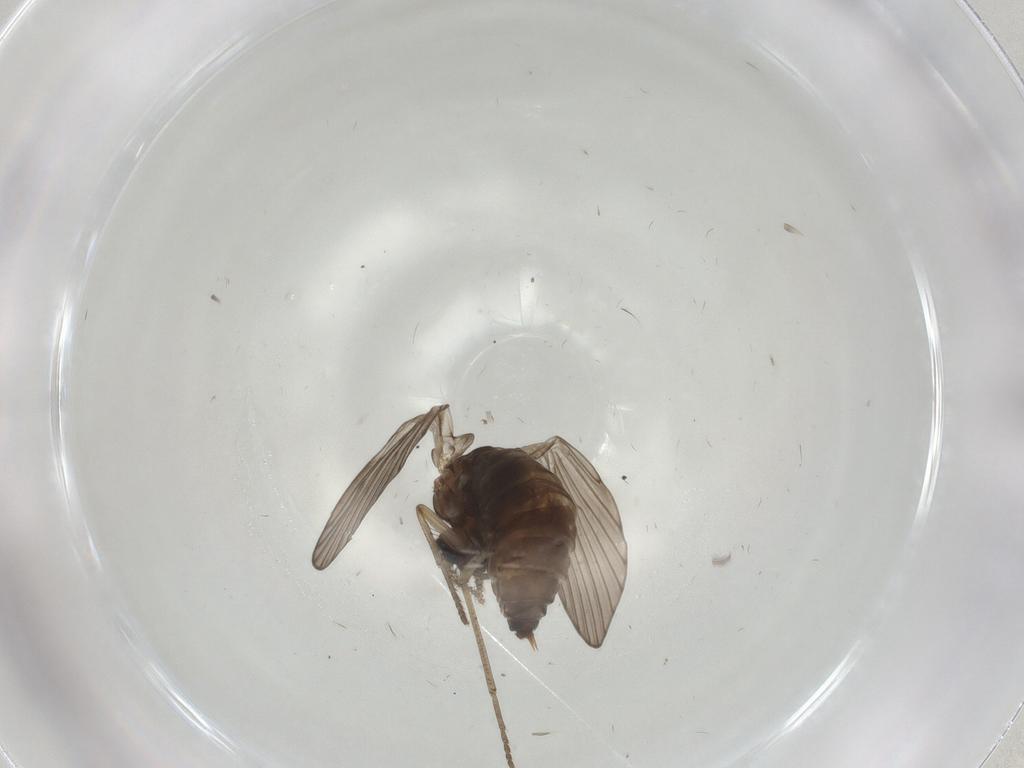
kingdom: Animalia
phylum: Arthropoda
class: Insecta
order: Diptera
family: Psychodidae
